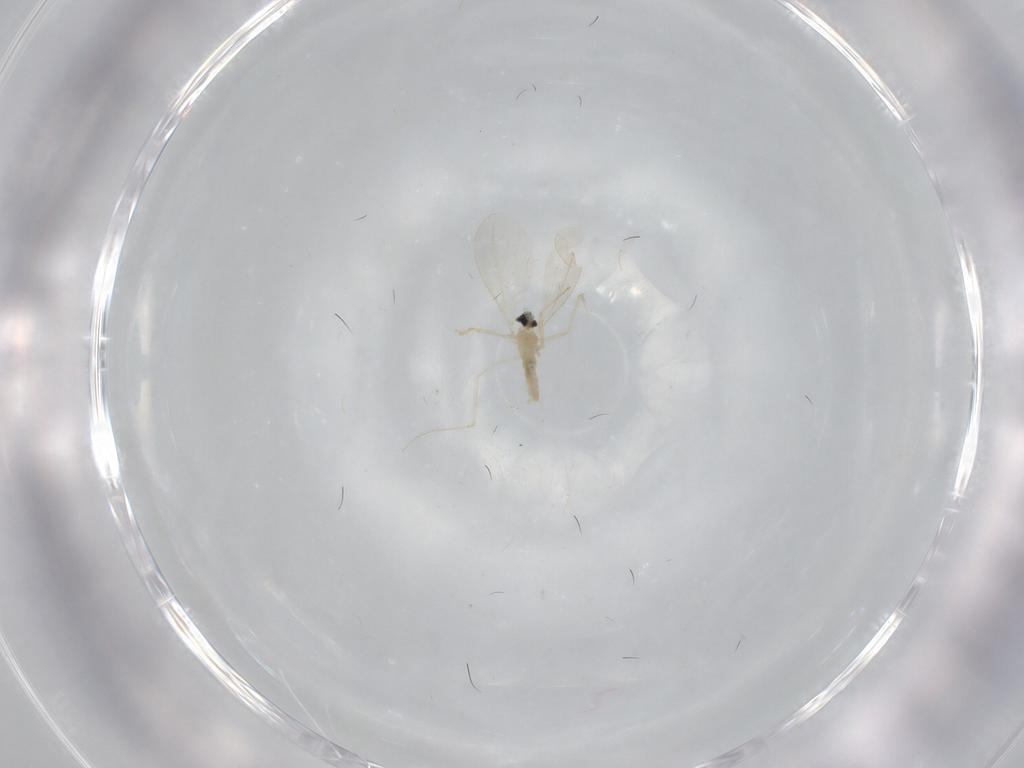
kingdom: Animalia
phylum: Arthropoda
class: Insecta
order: Diptera
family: Cecidomyiidae
